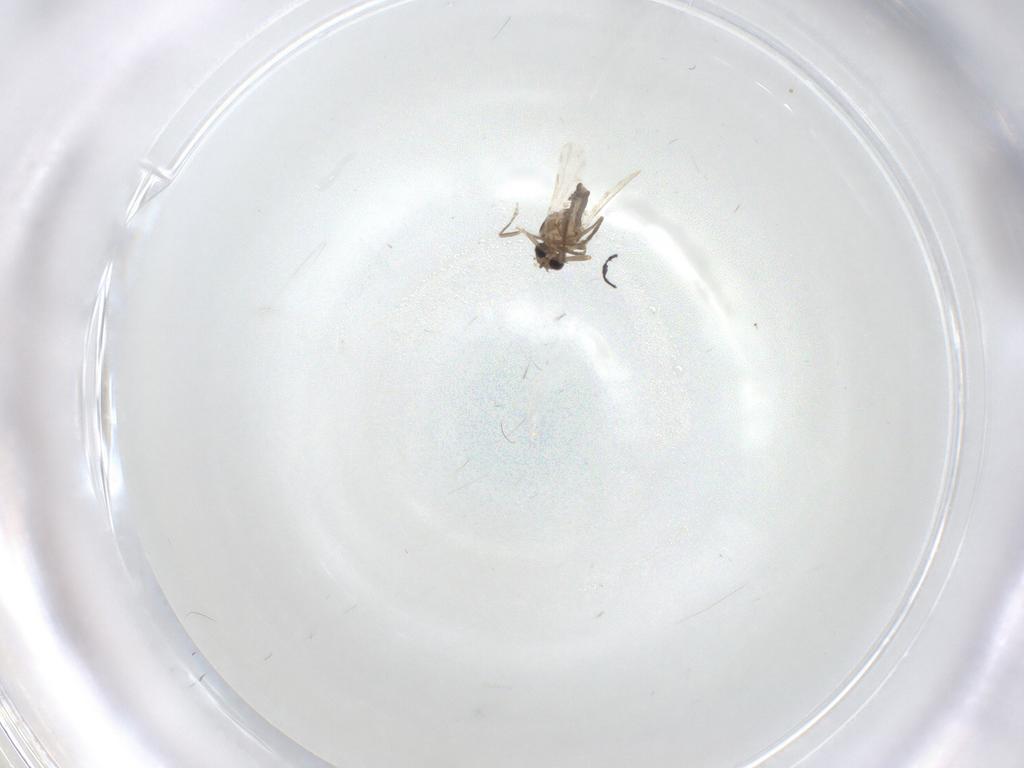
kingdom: Animalia
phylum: Arthropoda
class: Insecta
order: Diptera
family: Ceratopogonidae
